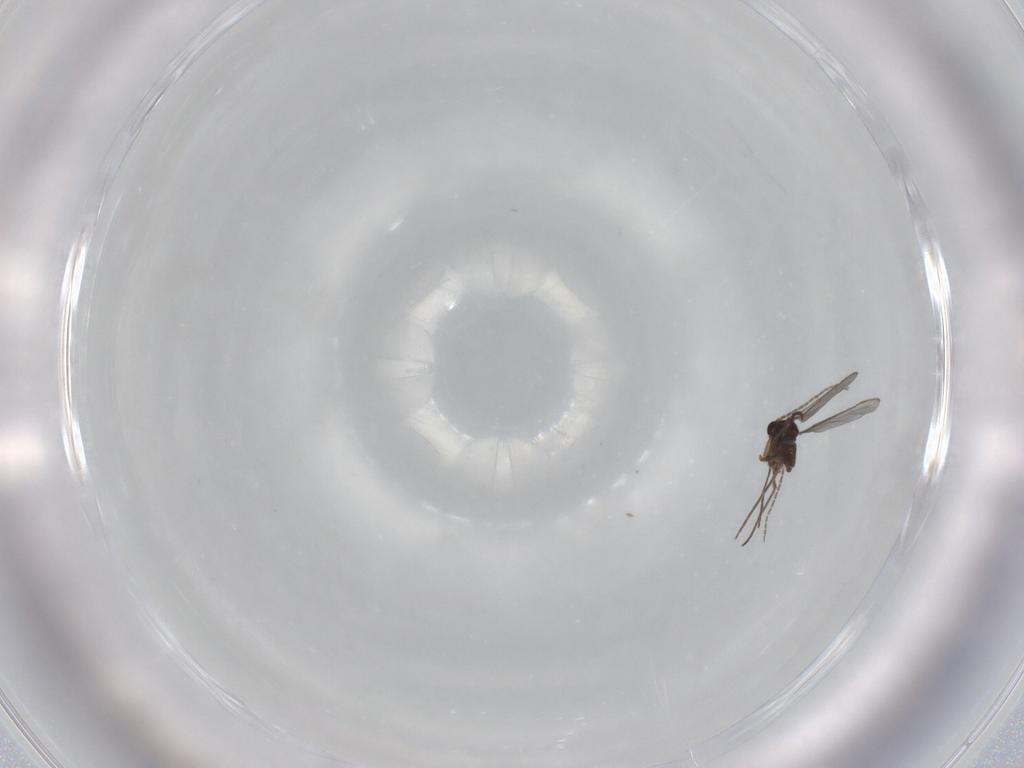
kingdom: Animalia
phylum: Arthropoda
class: Insecta
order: Diptera
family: Sciaridae
